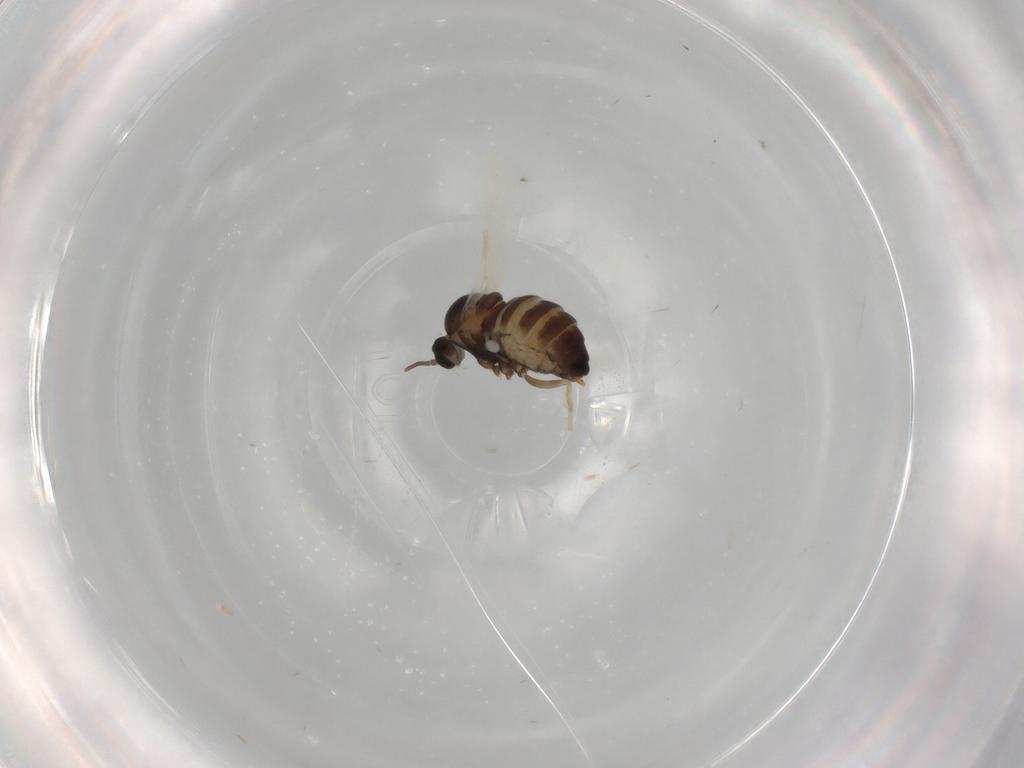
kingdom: Animalia
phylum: Arthropoda
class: Insecta
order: Diptera
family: Cecidomyiidae
